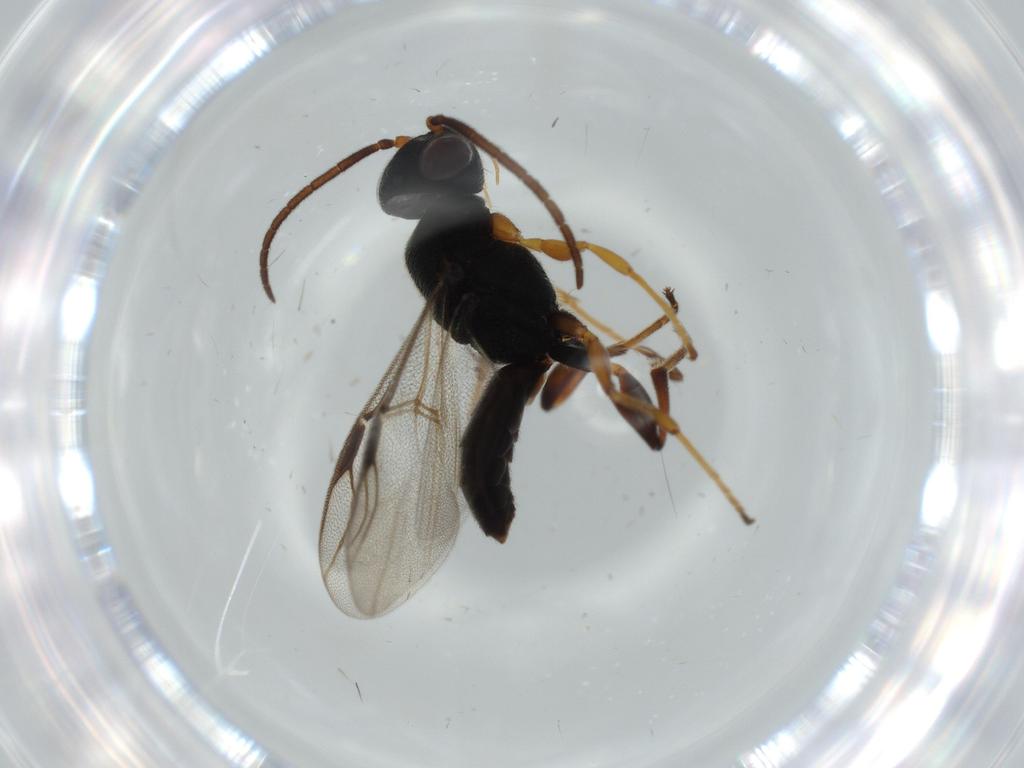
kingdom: Animalia
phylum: Arthropoda
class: Insecta
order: Hymenoptera
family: Dryinidae
